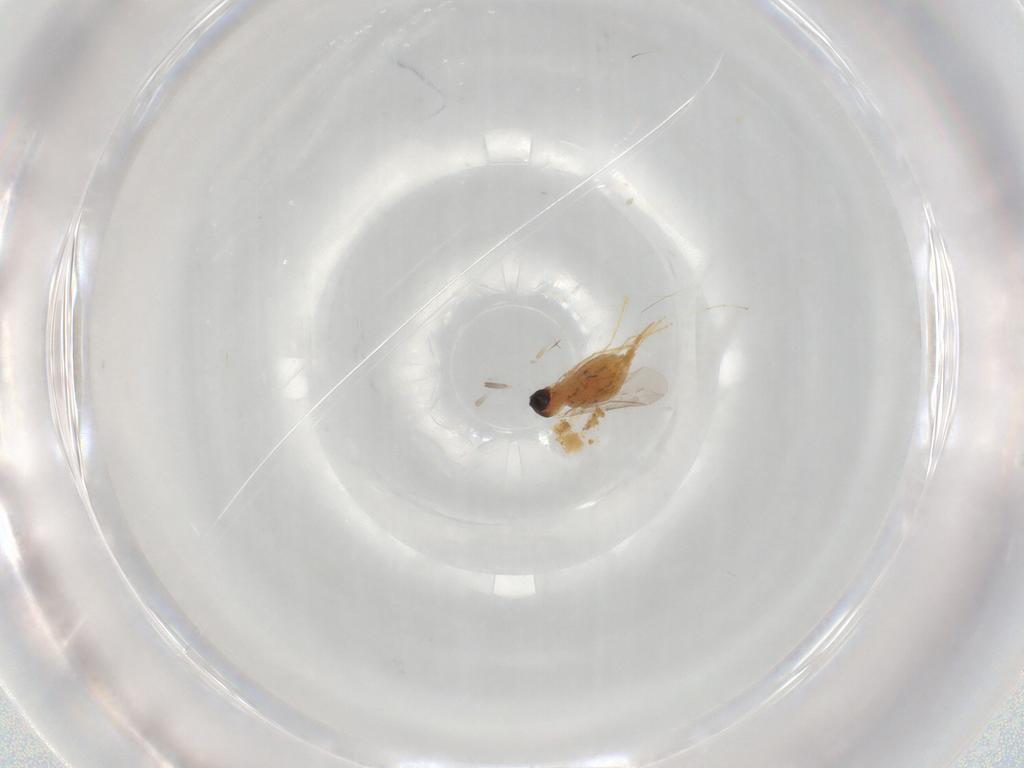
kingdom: Animalia
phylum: Arthropoda
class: Insecta
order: Diptera
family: Cecidomyiidae
